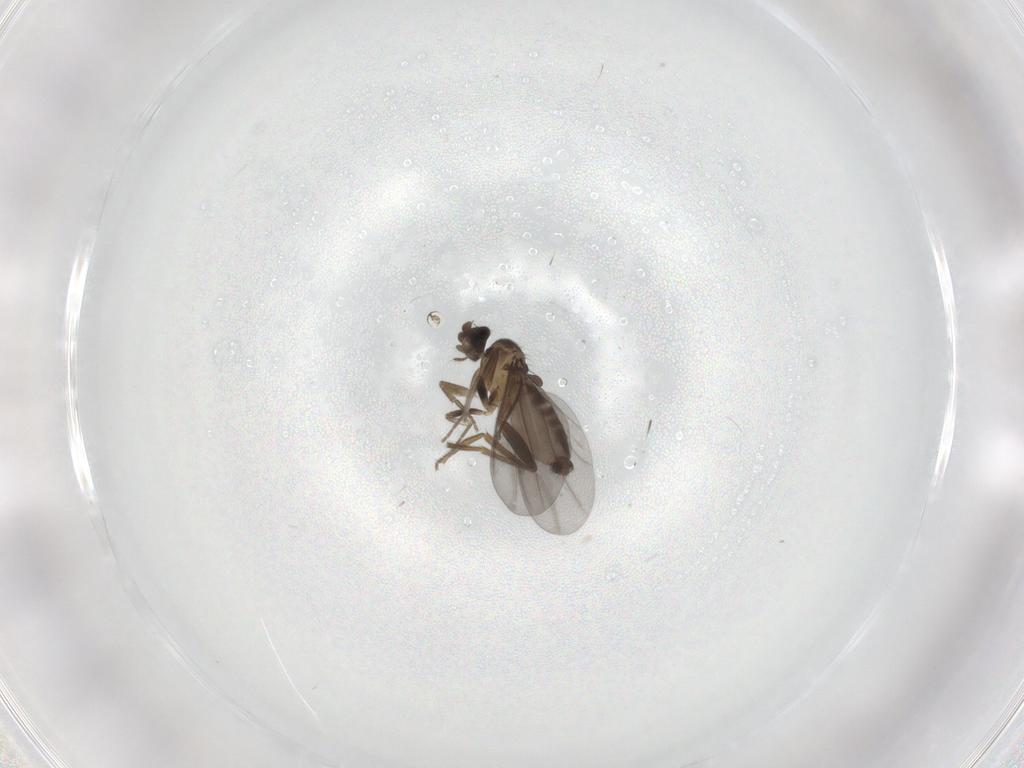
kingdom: Animalia
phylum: Arthropoda
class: Insecta
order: Diptera
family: Phoridae
